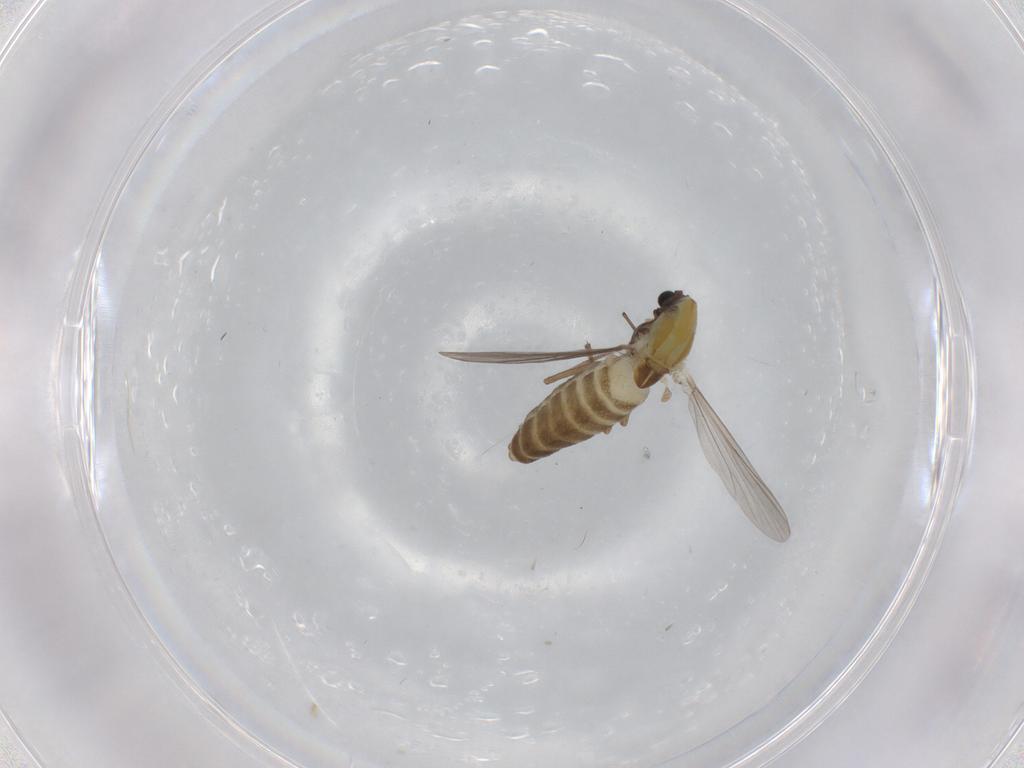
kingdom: Animalia
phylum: Arthropoda
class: Insecta
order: Diptera
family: Chironomidae
